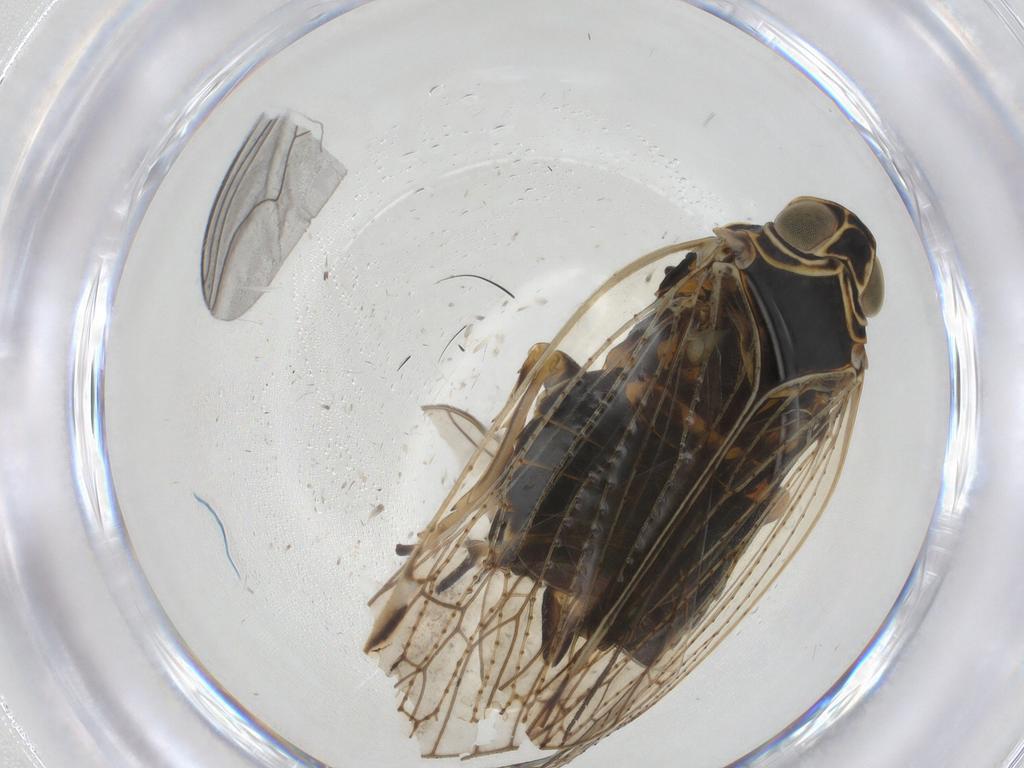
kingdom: Animalia
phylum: Arthropoda
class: Insecta
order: Hemiptera
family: Cixiidae
